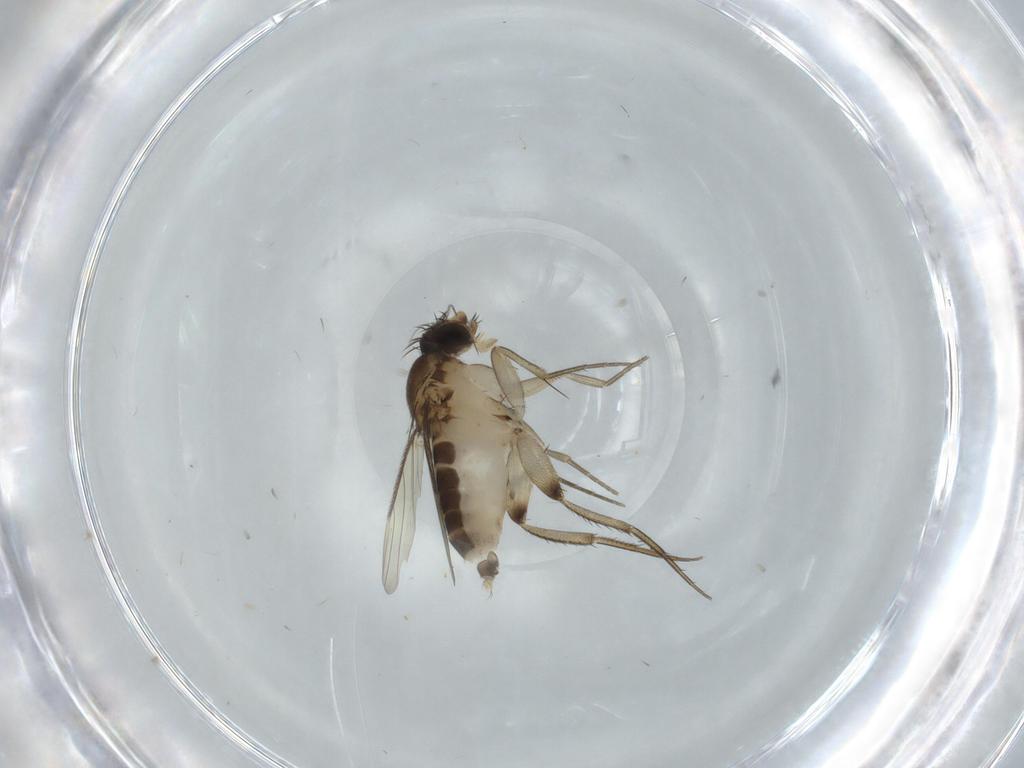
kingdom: Animalia
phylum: Arthropoda
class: Insecta
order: Diptera
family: Phoridae
